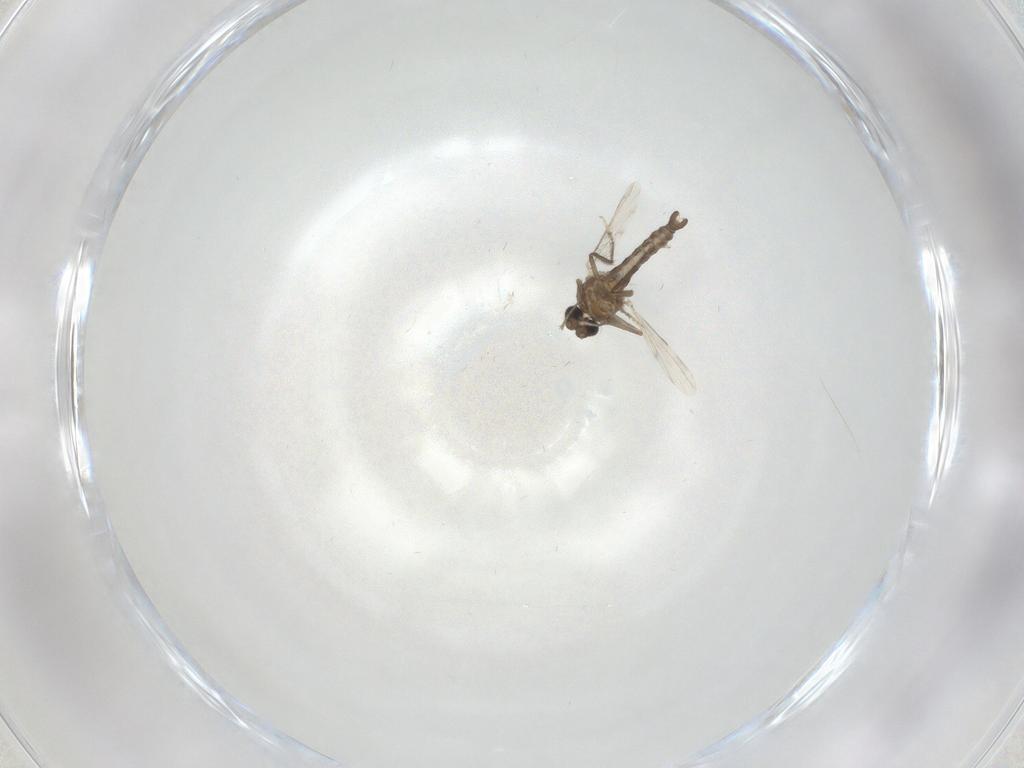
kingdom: Animalia
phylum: Arthropoda
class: Insecta
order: Diptera
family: Ceratopogonidae
